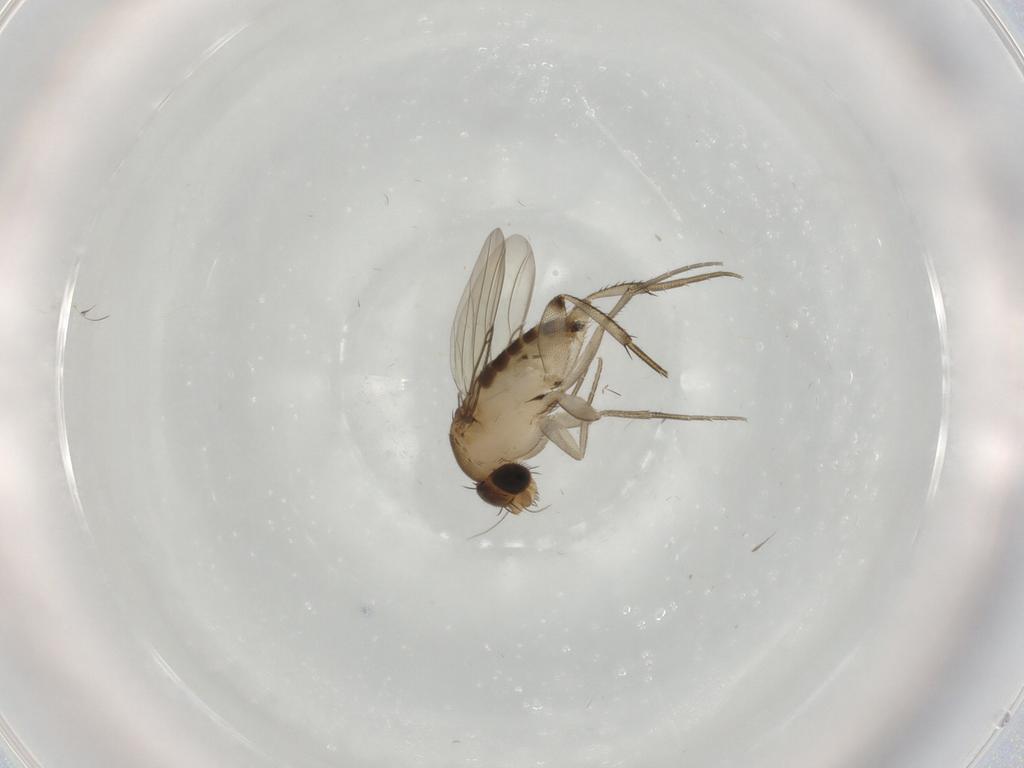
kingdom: Animalia
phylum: Arthropoda
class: Insecta
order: Diptera
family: Phoridae
